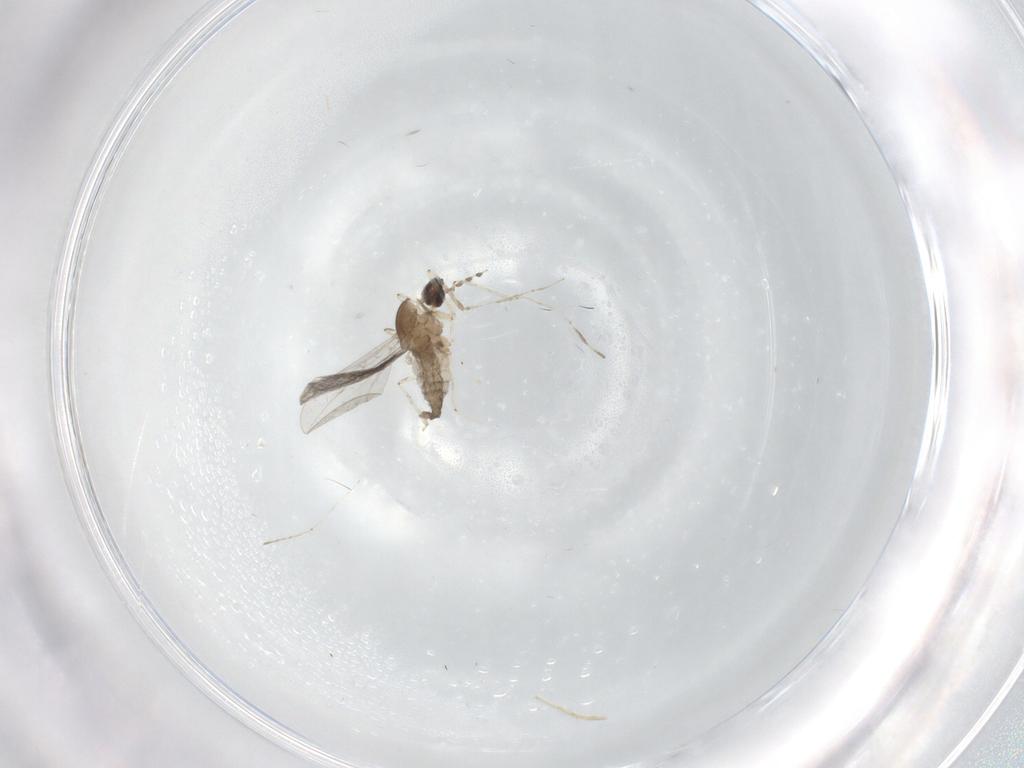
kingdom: Animalia
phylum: Arthropoda
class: Insecta
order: Diptera
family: Cecidomyiidae
